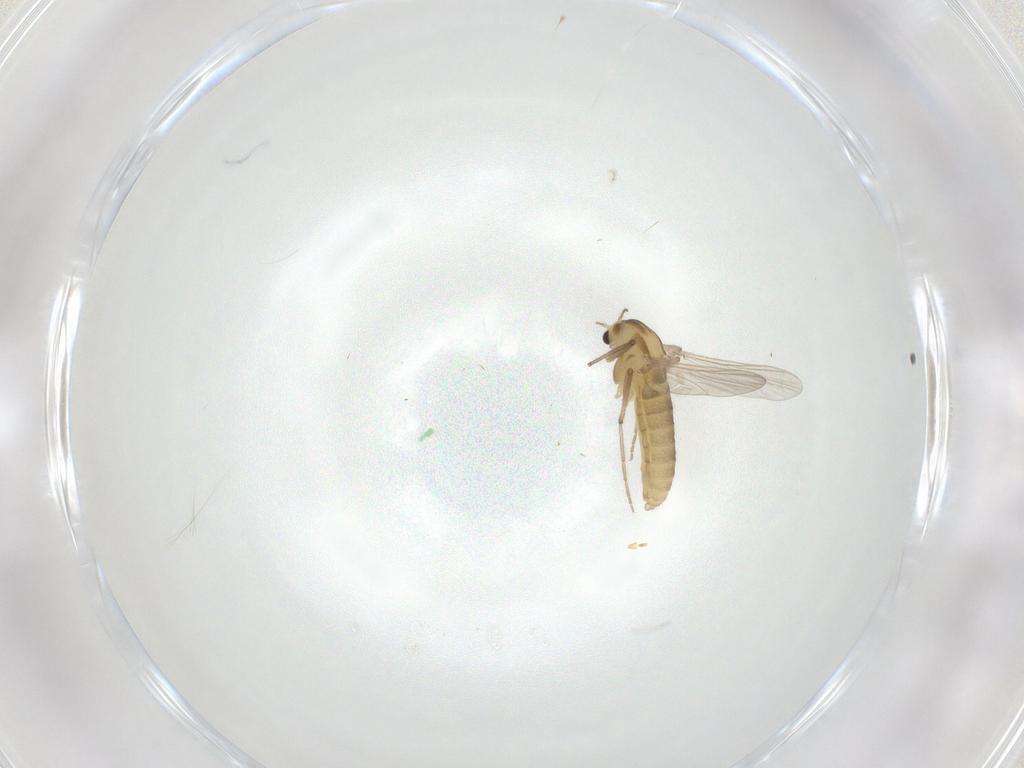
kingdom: Animalia
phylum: Arthropoda
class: Insecta
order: Diptera
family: Chironomidae
